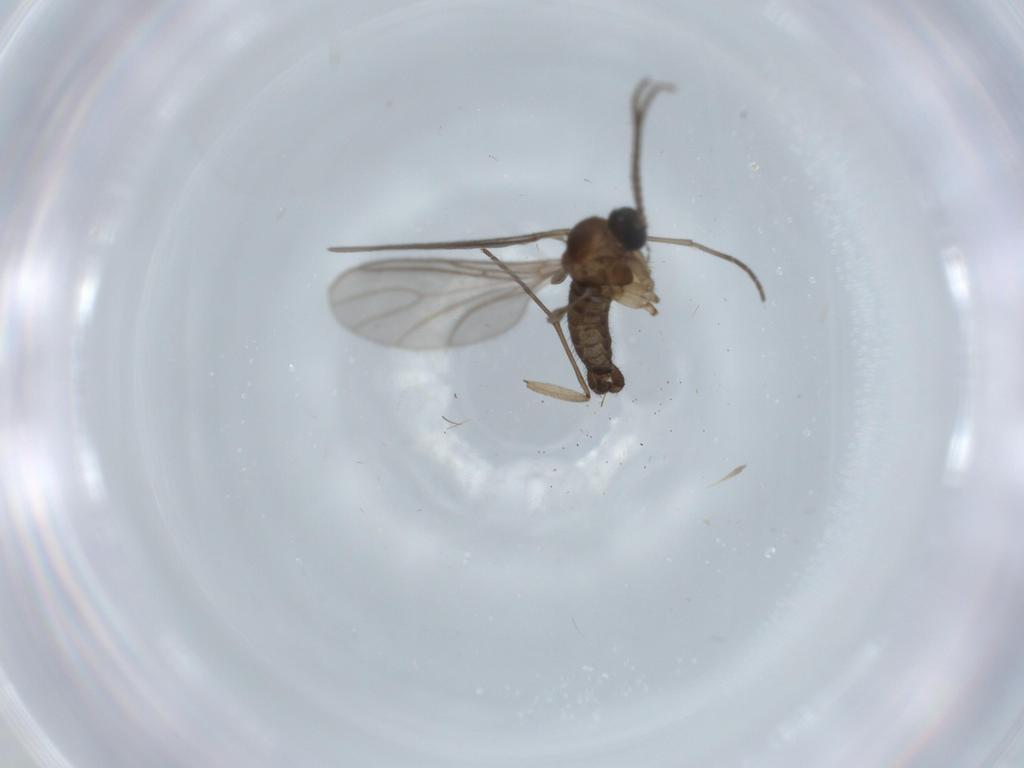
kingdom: Animalia
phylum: Arthropoda
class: Insecta
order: Diptera
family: Sciaridae
